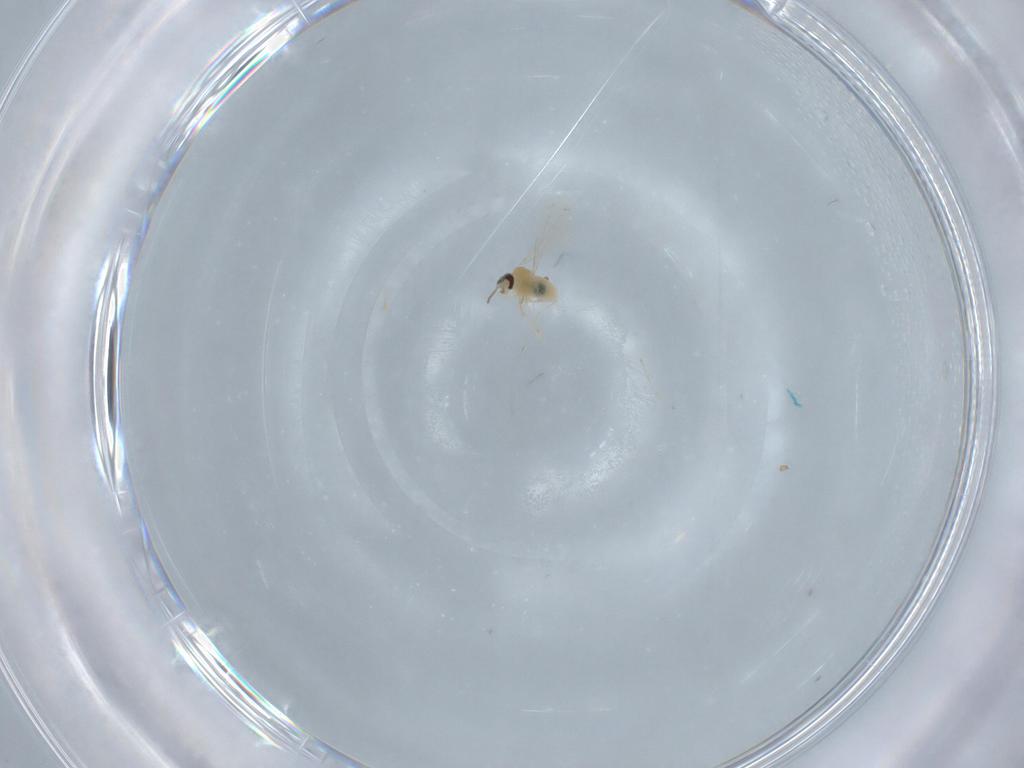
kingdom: Animalia
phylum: Arthropoda
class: Insecta
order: Diptera
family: Cecidomyiidae
